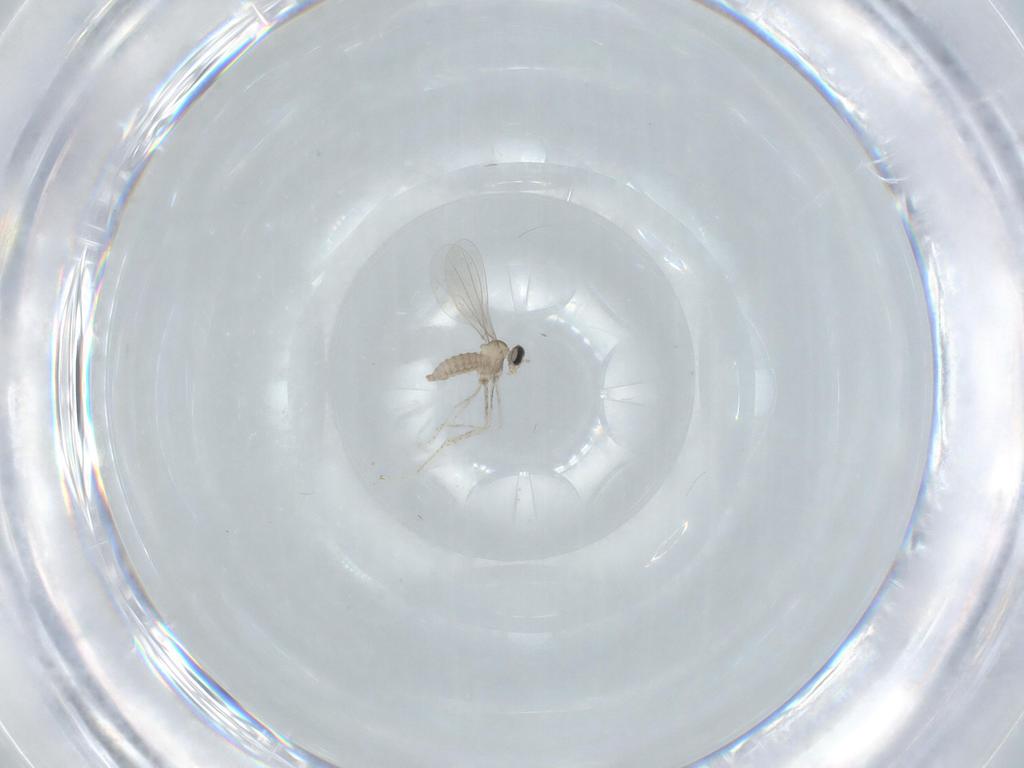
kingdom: Animalia
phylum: Arthropoda
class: Insecta
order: Diptera
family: Cecidomyiidae
